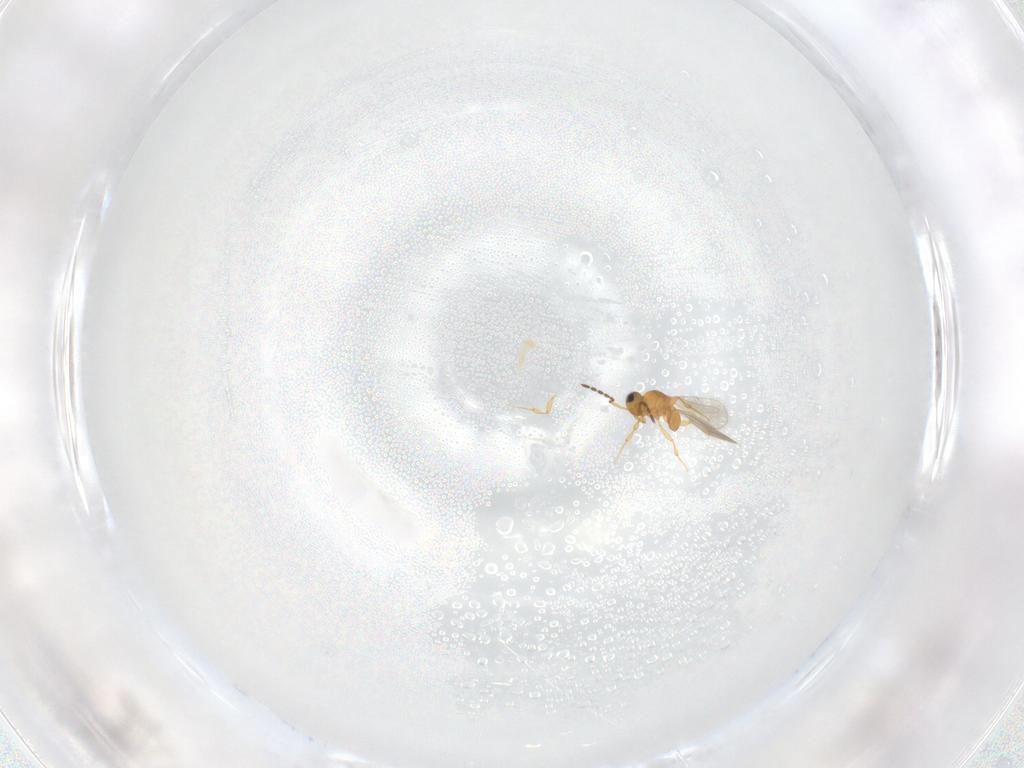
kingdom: Animalia
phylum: Arthropoda
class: Insecta
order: Hymenoptera
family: Platygastridae
